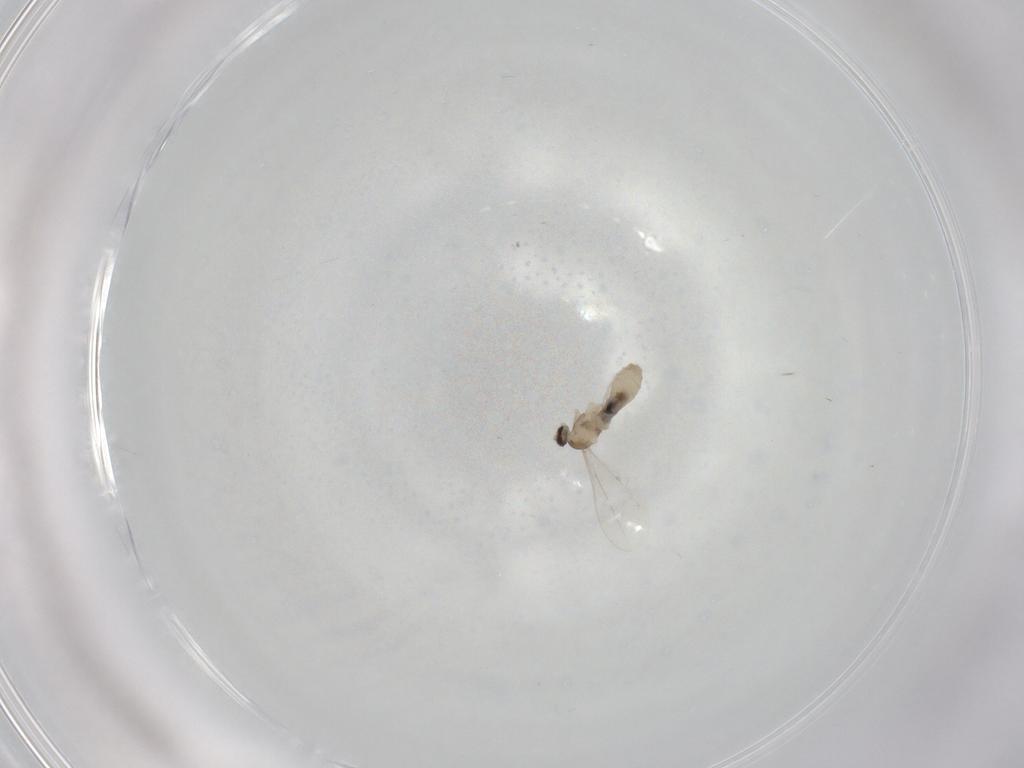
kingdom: Animalia
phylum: Arthropoda
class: Insecta
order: Diptera
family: Cecidomyiidae
